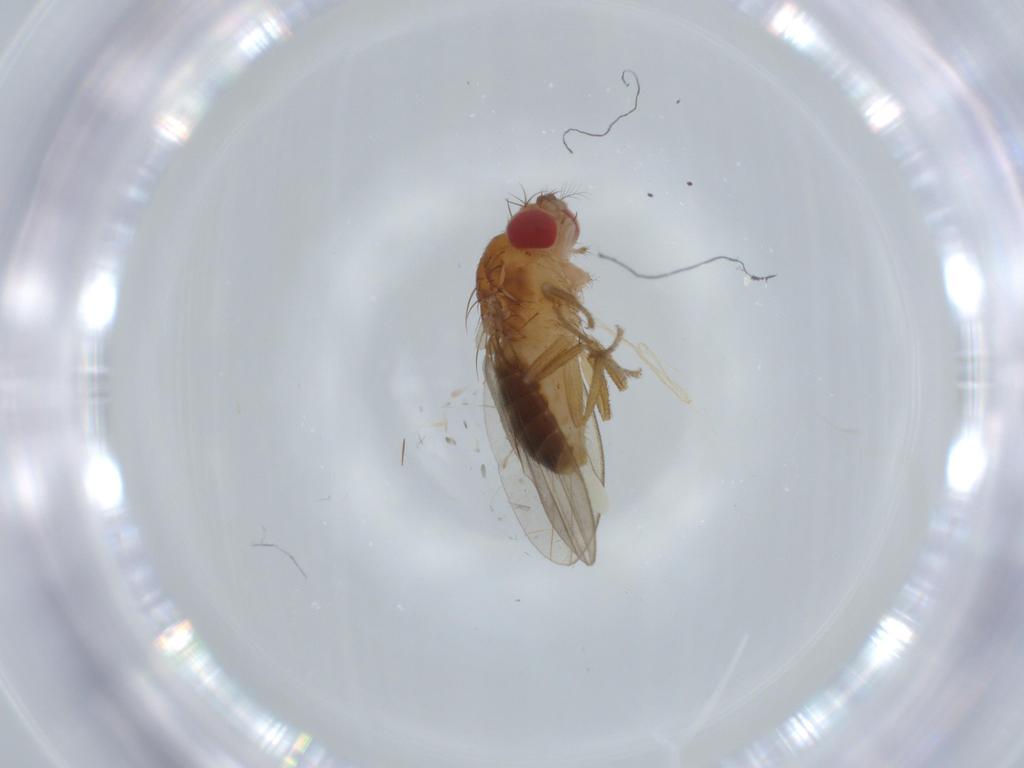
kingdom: Animalia
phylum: Arthropoda
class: Insecta
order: Diptera
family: Drosophilidae
